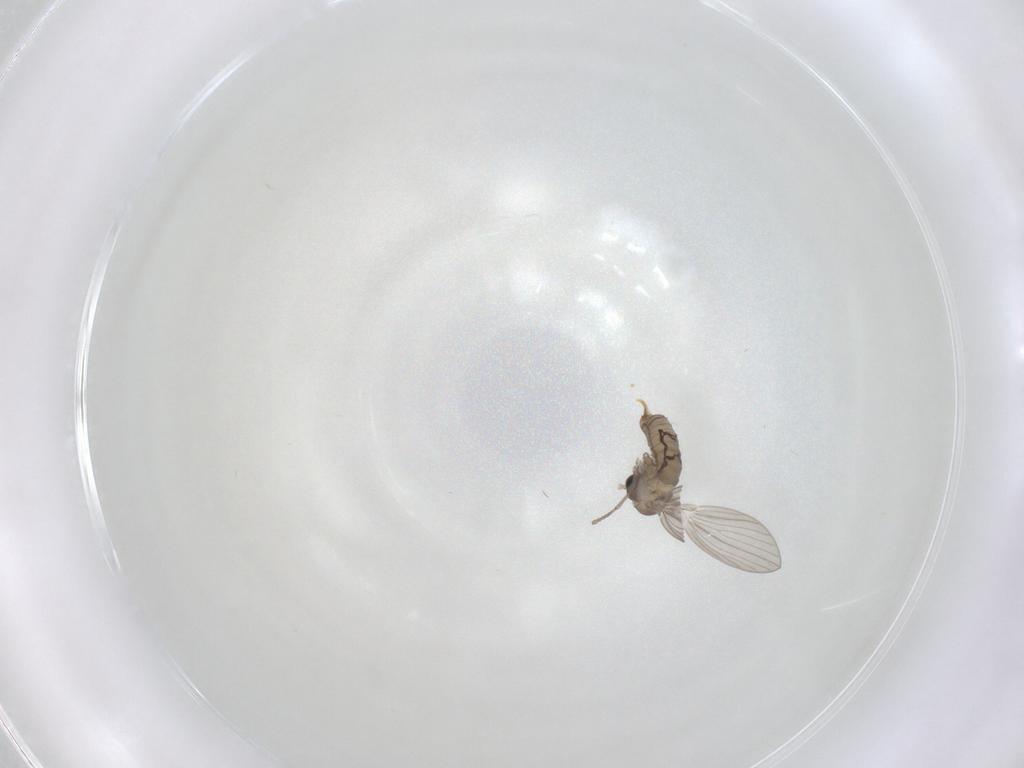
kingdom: Animalia
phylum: Arthropoda
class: Insecta
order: Diptera
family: Psychodidae
